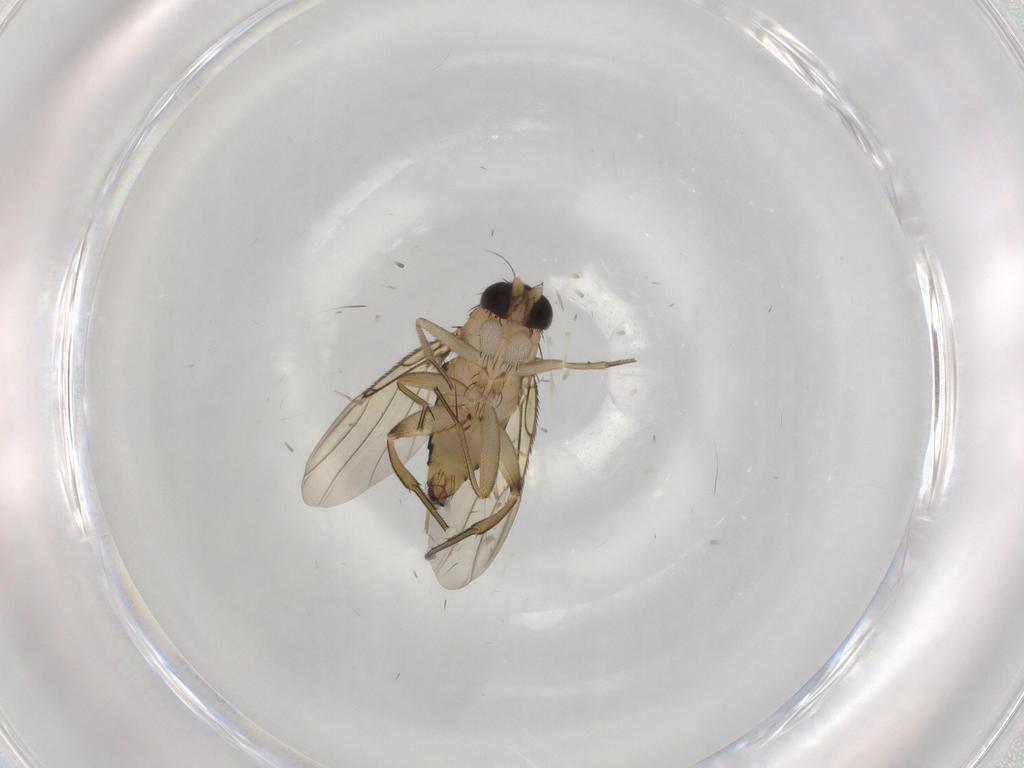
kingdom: Animalia
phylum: Arthropoda
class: Insecta
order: Diptera
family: Phoridae
